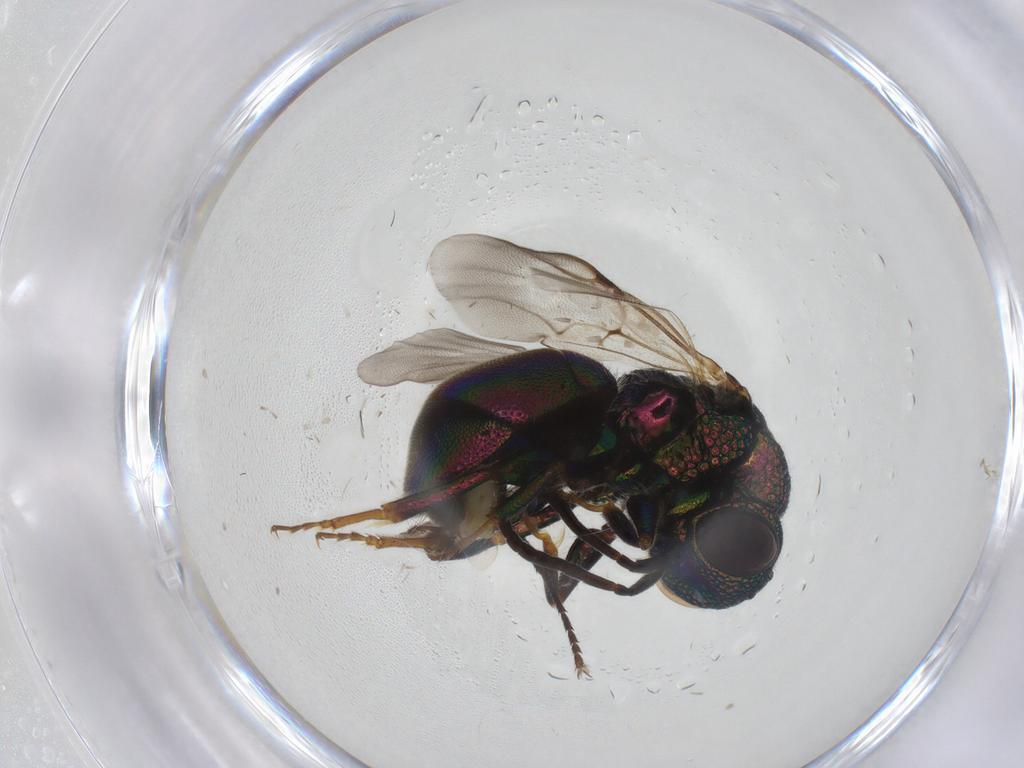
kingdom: Animalia
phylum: Arthropoda
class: Insecta
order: Hymenoptera
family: Chrysididae
